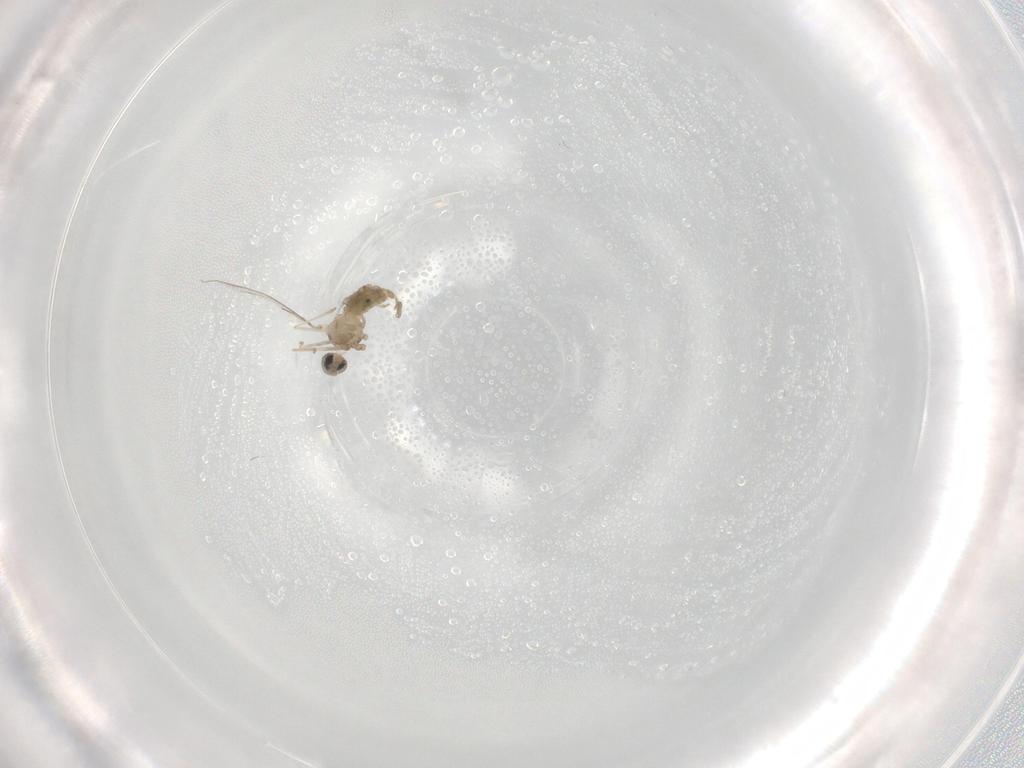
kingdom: Animalia
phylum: Arthropoda
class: Insecta
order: Diptera
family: Cecidomyiidae
